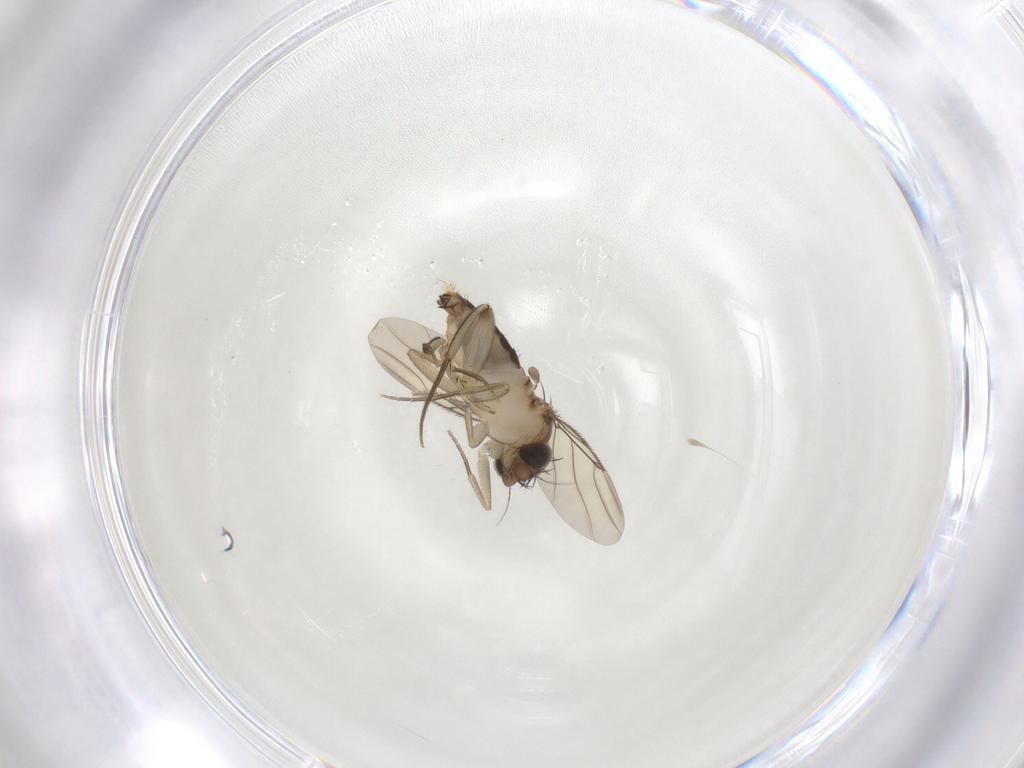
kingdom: Animalia
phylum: Arthropoda
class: Insecta
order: Diptera
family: Phoridae
